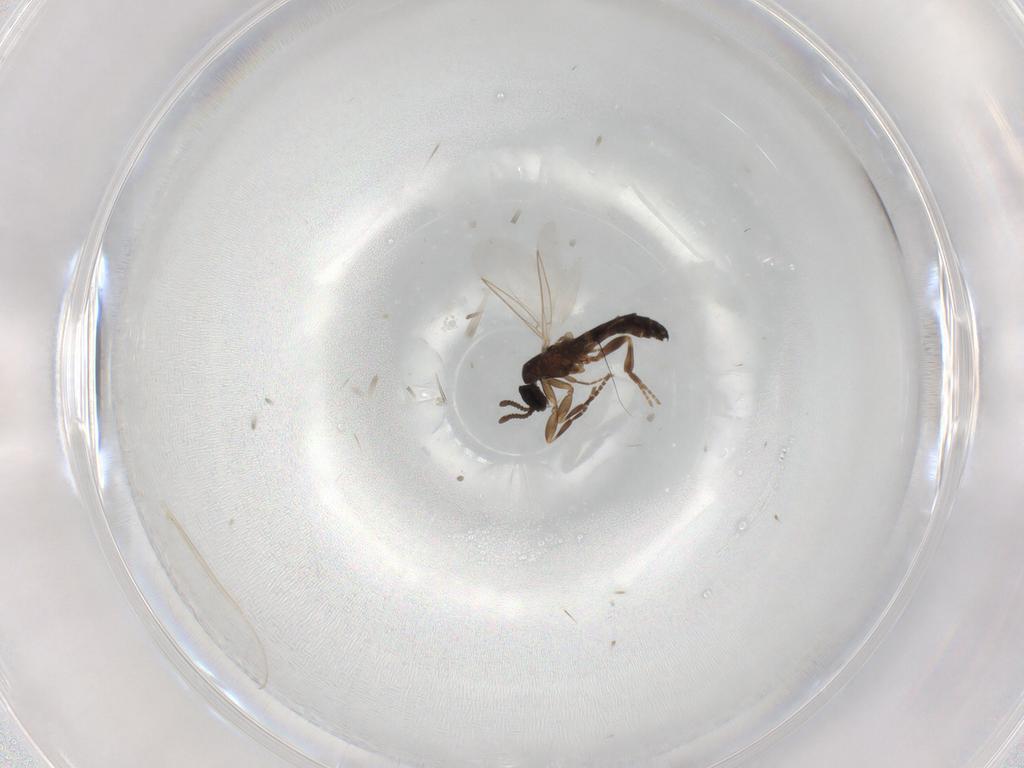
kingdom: Animalia
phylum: Arthropoda
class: Insecta
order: Diptera
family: Scatopsidae
